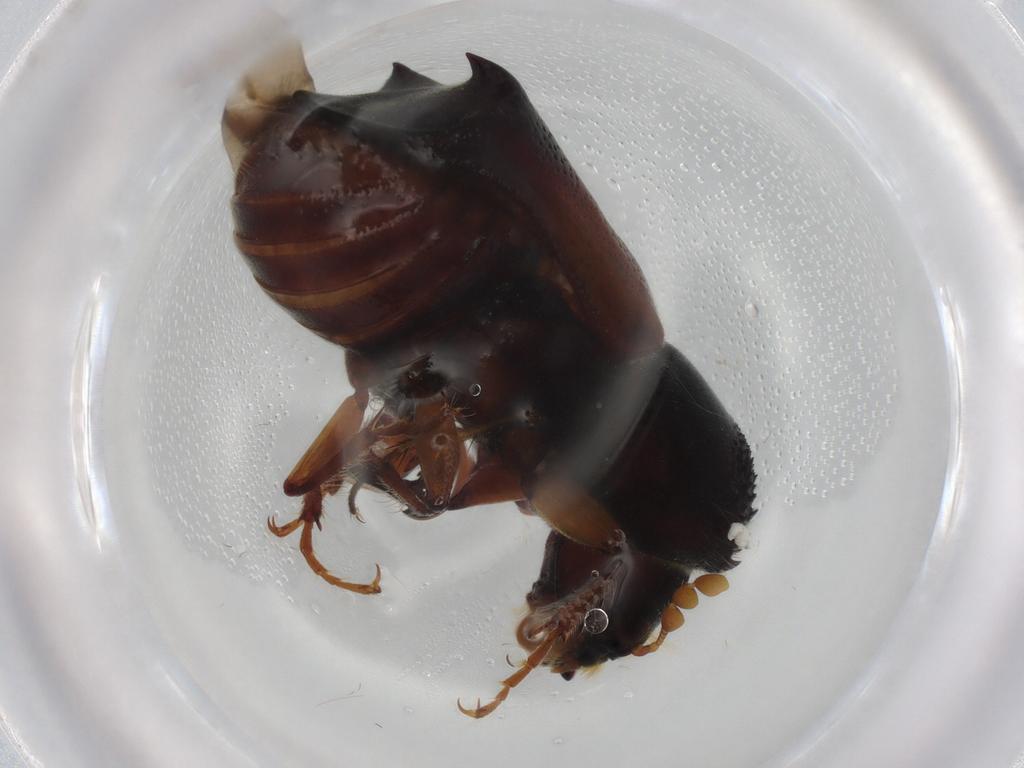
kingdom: Animalia
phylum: Arthropoda
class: Insecta
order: Coleoptera
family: Bostrichidae
